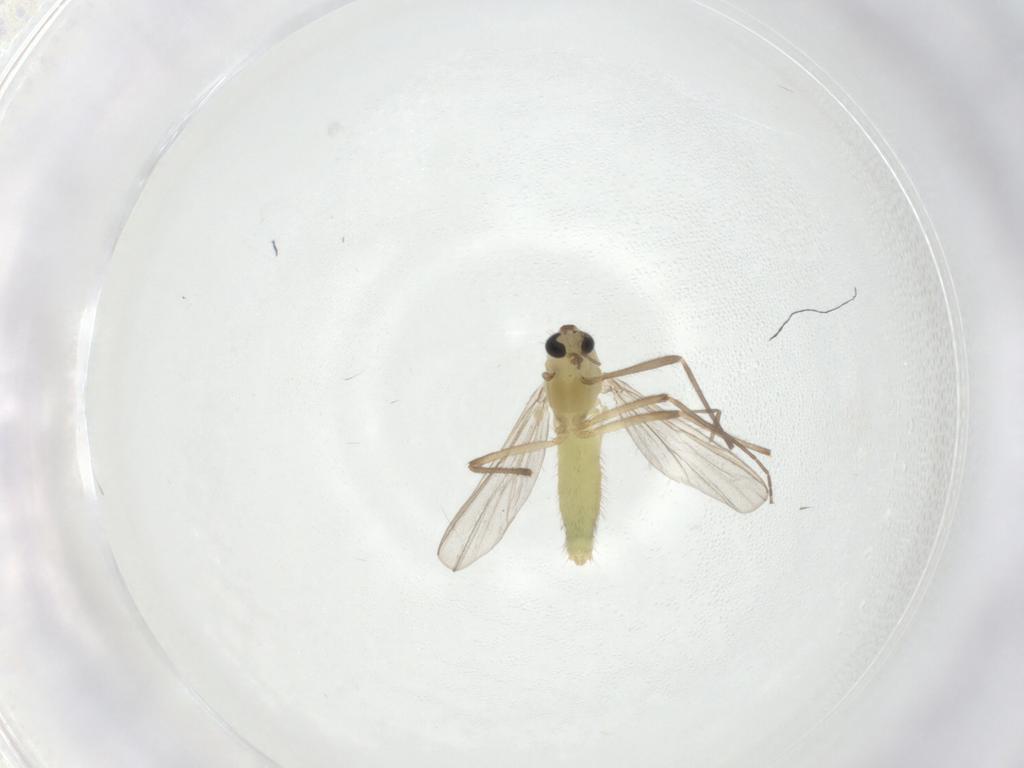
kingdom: Animalia
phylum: Arthropoda
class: Insecta
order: Diptera
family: Chironomidae
